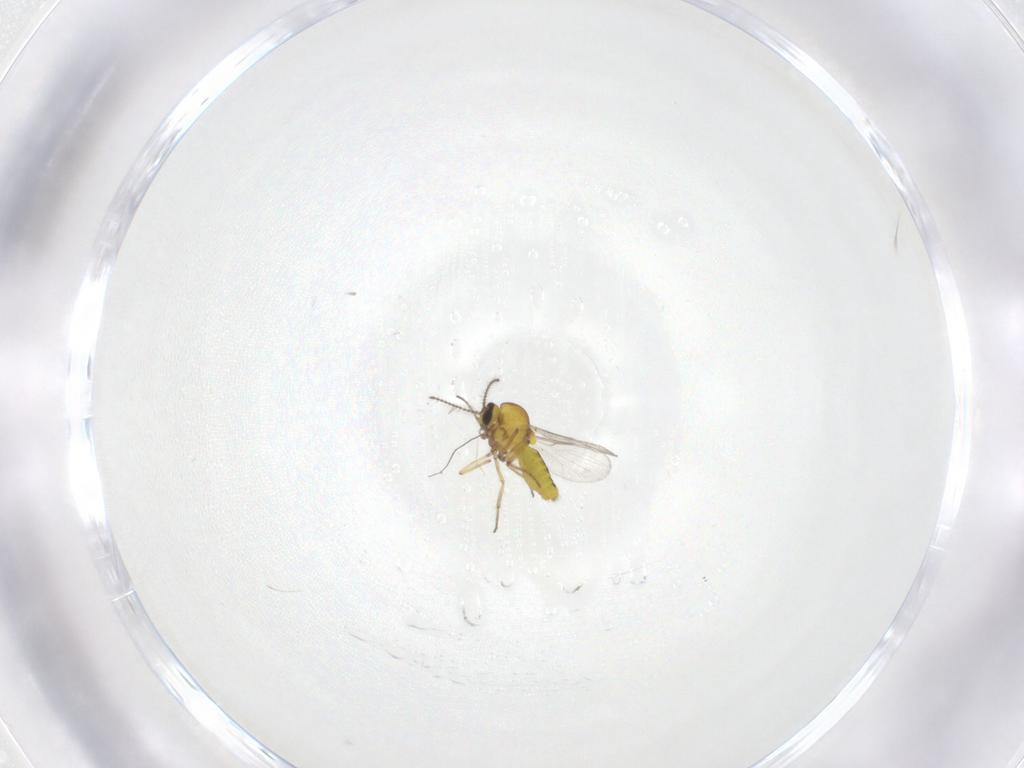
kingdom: Animalia
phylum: Arthropoda
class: Insecta
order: Diptera
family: Ceratopogonidae
